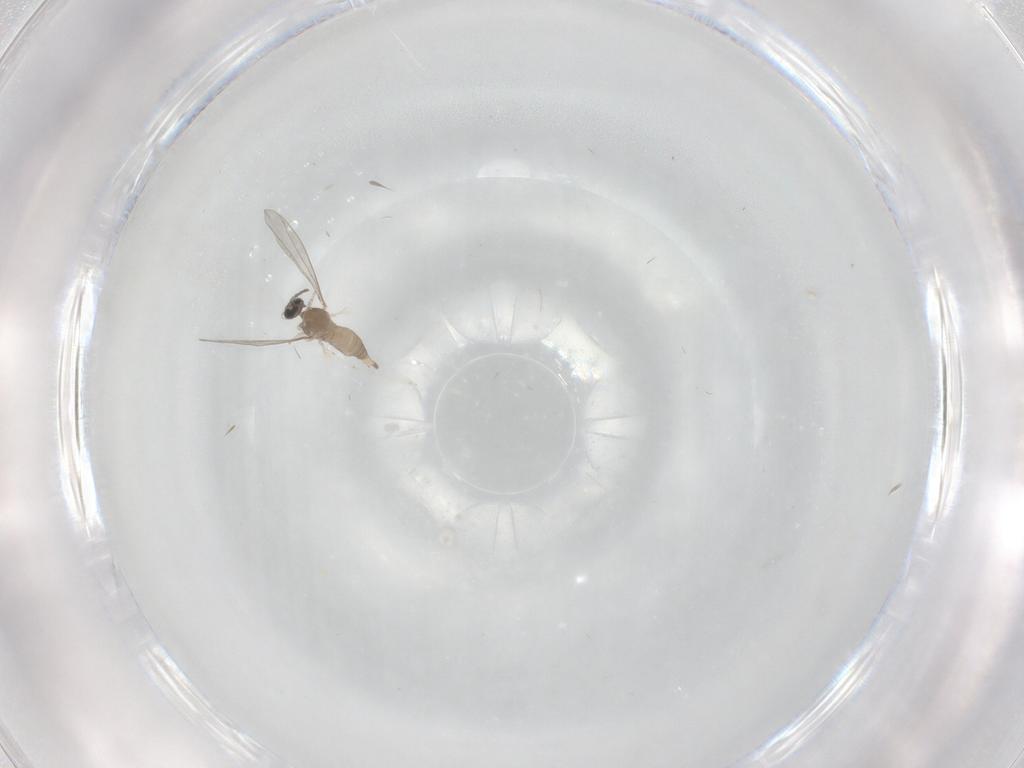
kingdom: Animalia
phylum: Arthropoda
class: Insecta
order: Diptera
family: Cecidomyiidae
